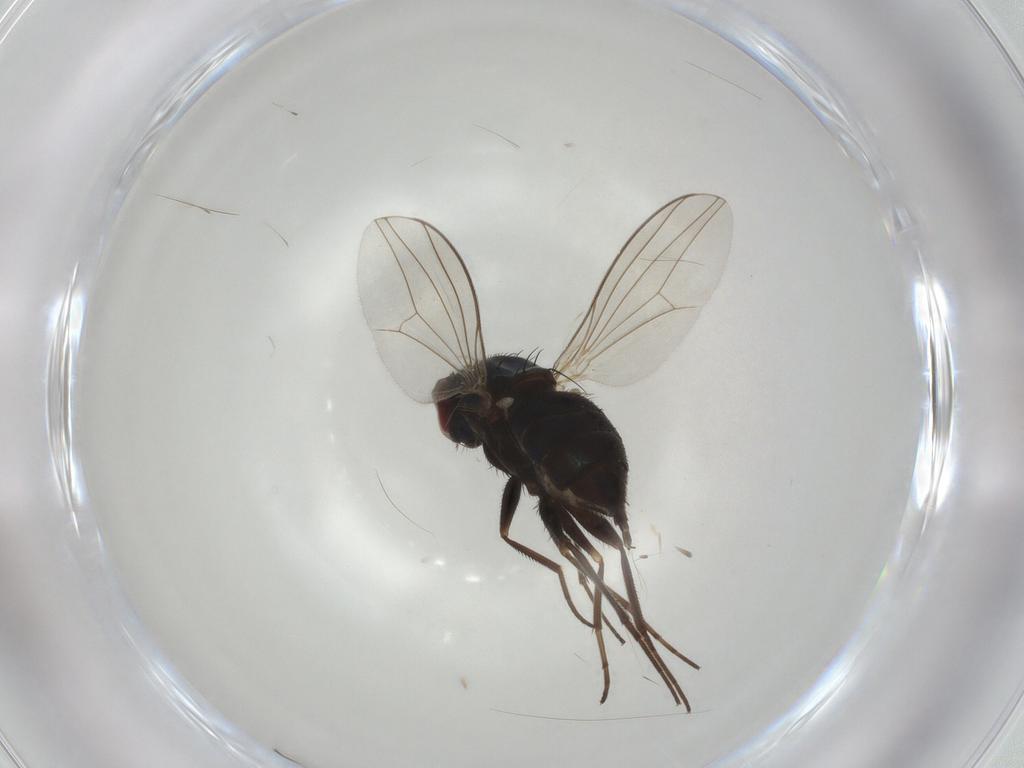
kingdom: Animalia
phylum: Arthropoda
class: Insecta
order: Diptera
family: Dolichopodidae
